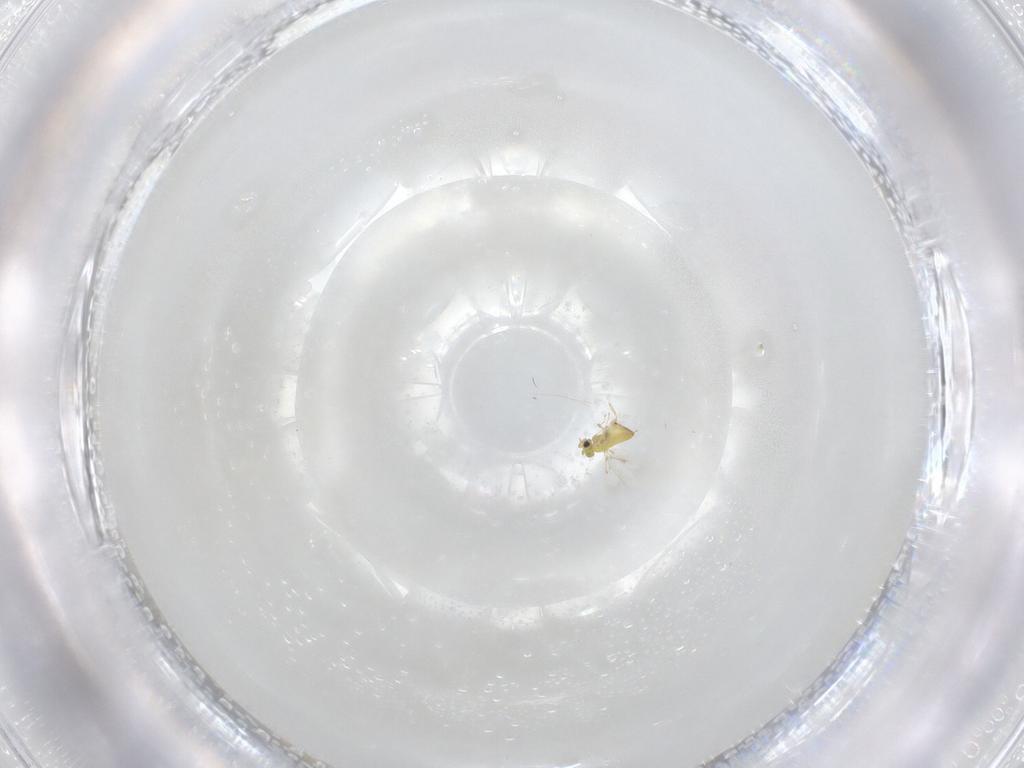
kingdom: Animalia
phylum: Arthropoda
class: Insecta
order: Hymenoptera
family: Trichogrammatidae
